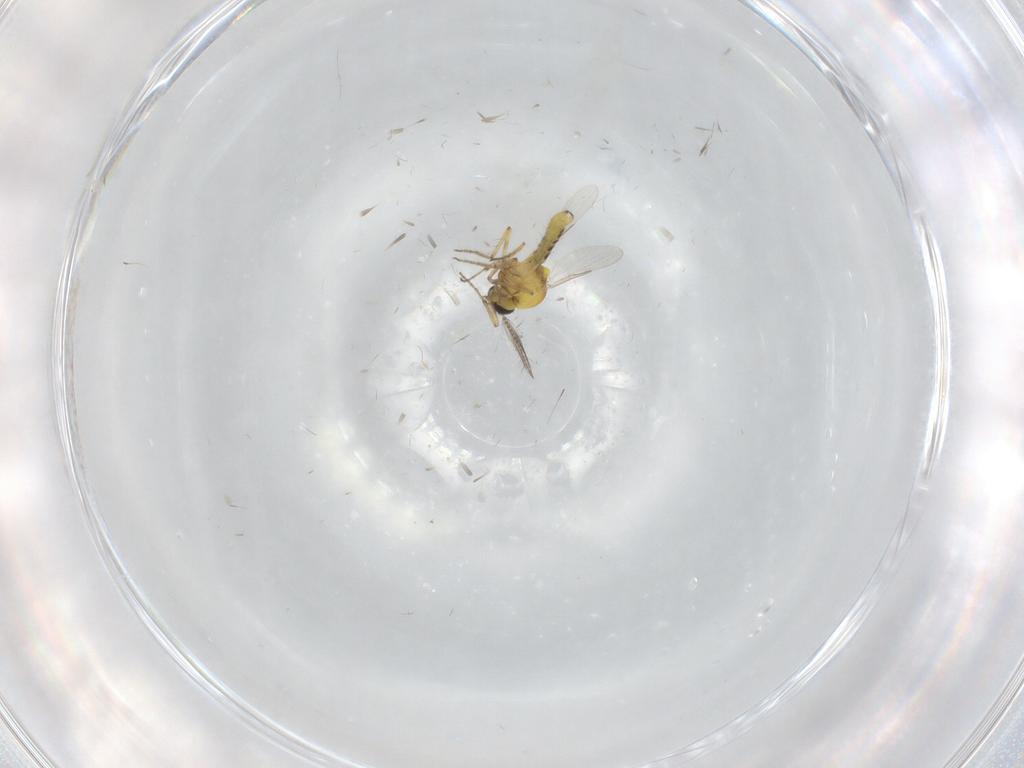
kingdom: Animalia
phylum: Arthropoda
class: Insecta
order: Diptera
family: Ceratopogonidae
